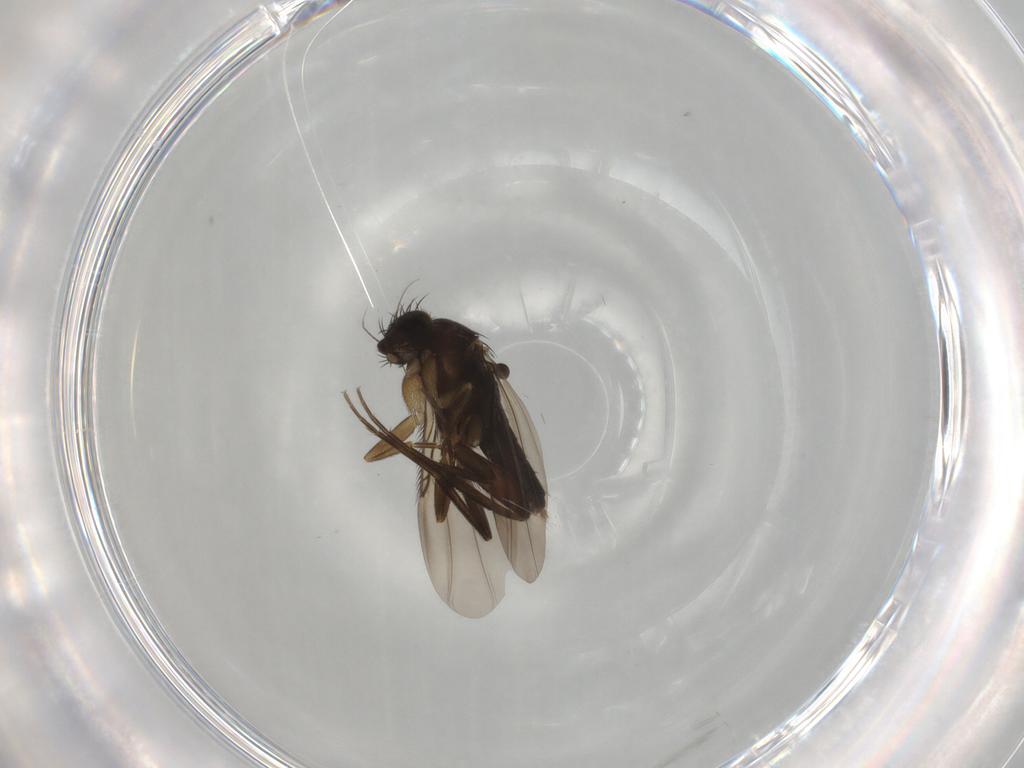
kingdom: Animalia
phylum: Arthropoda
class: Insecta
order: Diptera
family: Phoridae
